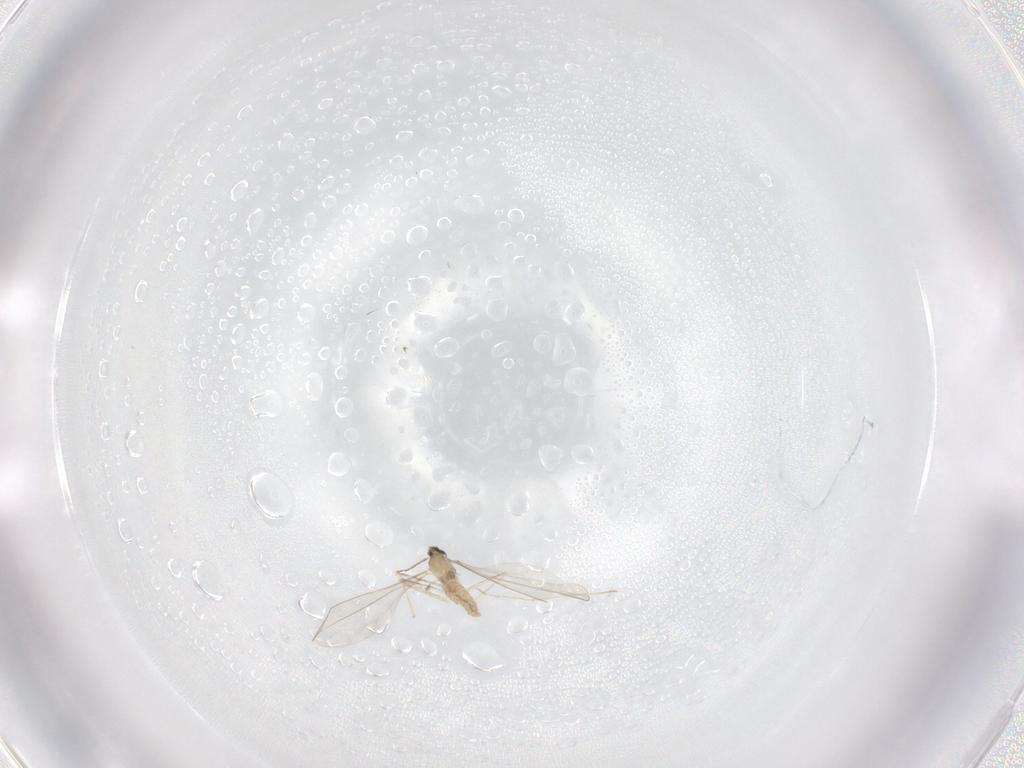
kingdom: Animalia
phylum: Arthropoda
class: Insecta
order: Diptera
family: Cecidomyiidae
